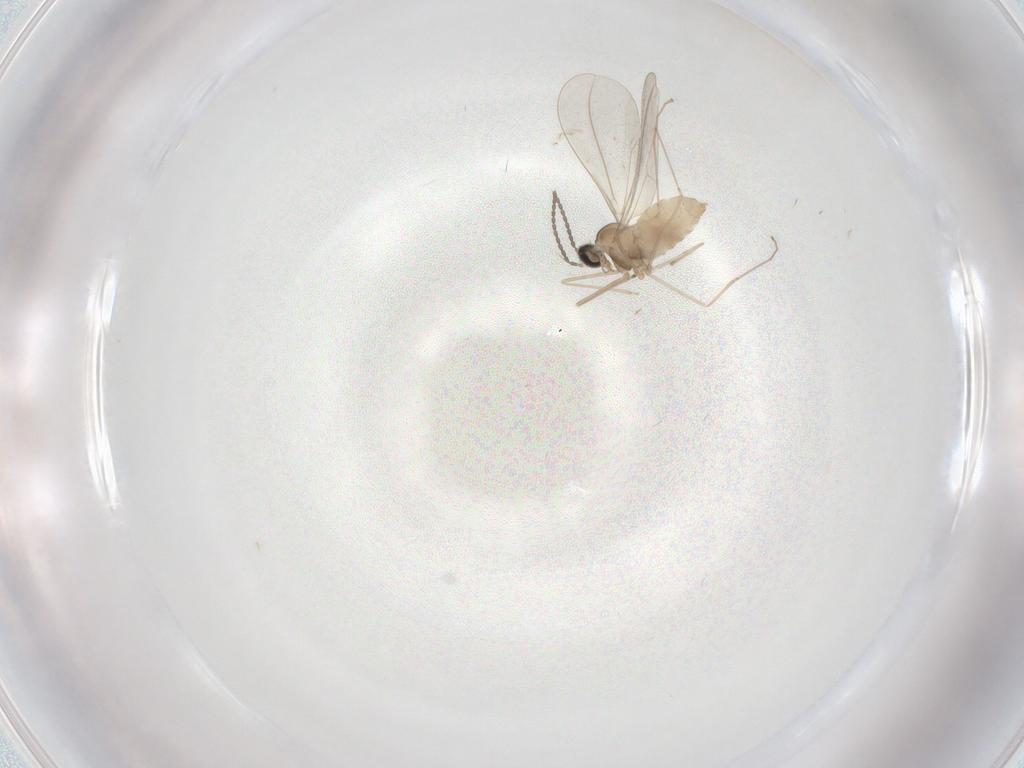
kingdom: Animalia
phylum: Arthropoda
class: Insecta
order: Diptera
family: Cecidomyiidae
